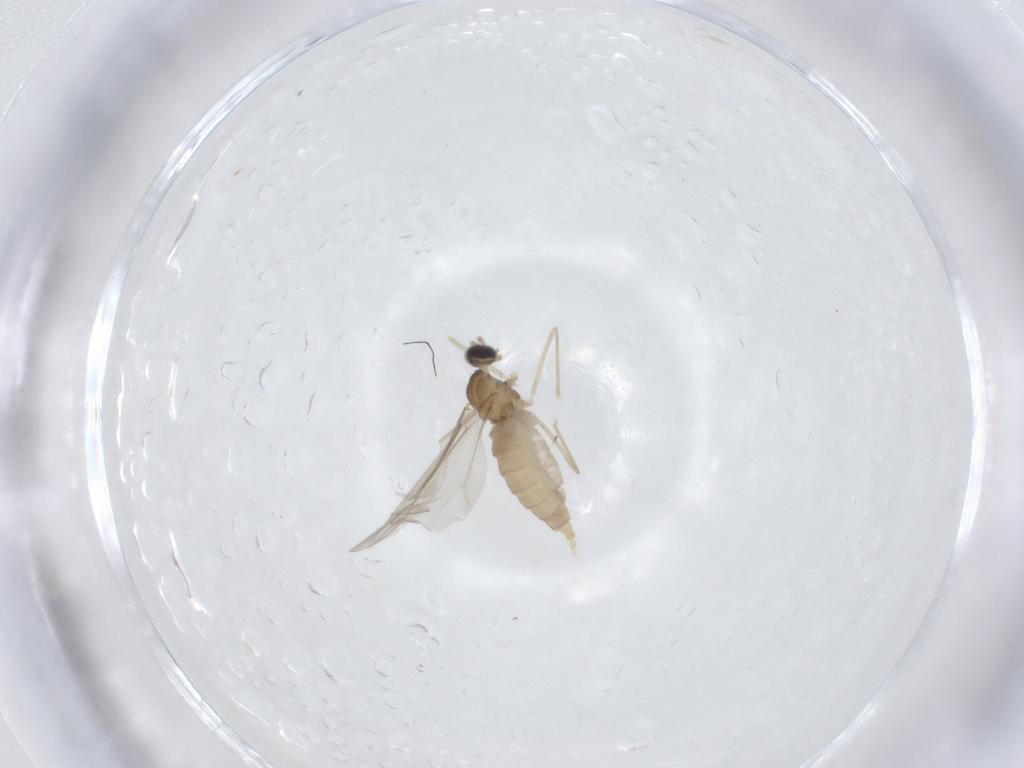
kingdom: Animalia
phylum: Arthropoda
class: Insecta
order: Diptera
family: Cecidomyiidae
